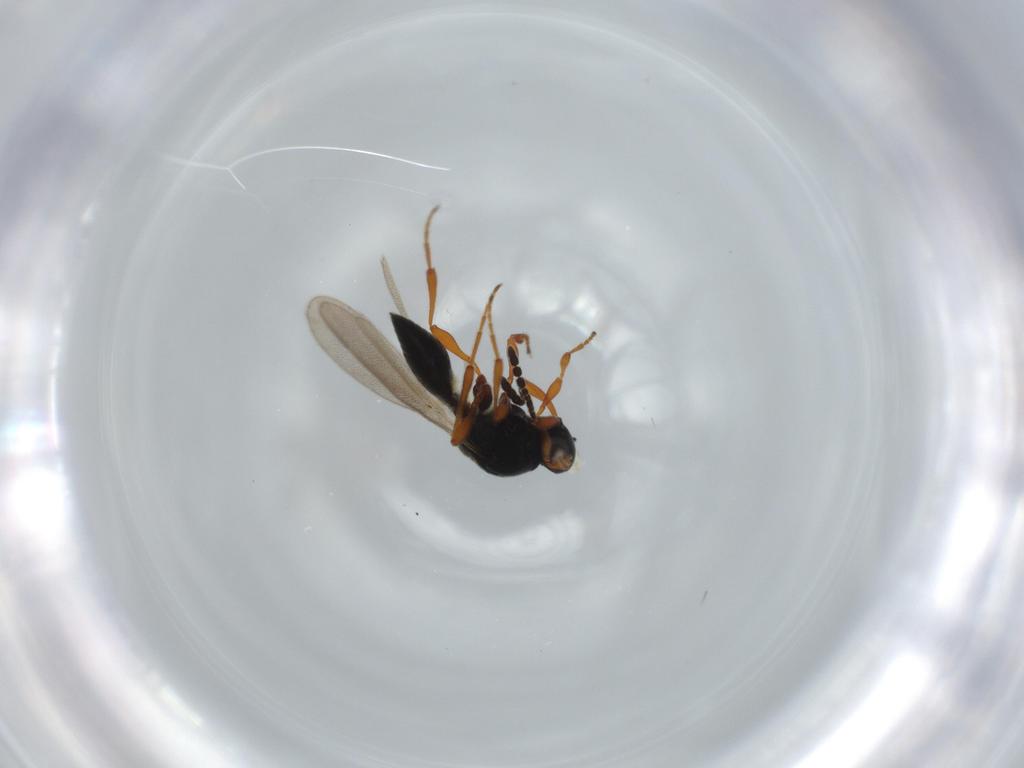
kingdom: Animalia
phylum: Arthropoda
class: Insecta
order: Hymenoptera
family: Platygastridae
